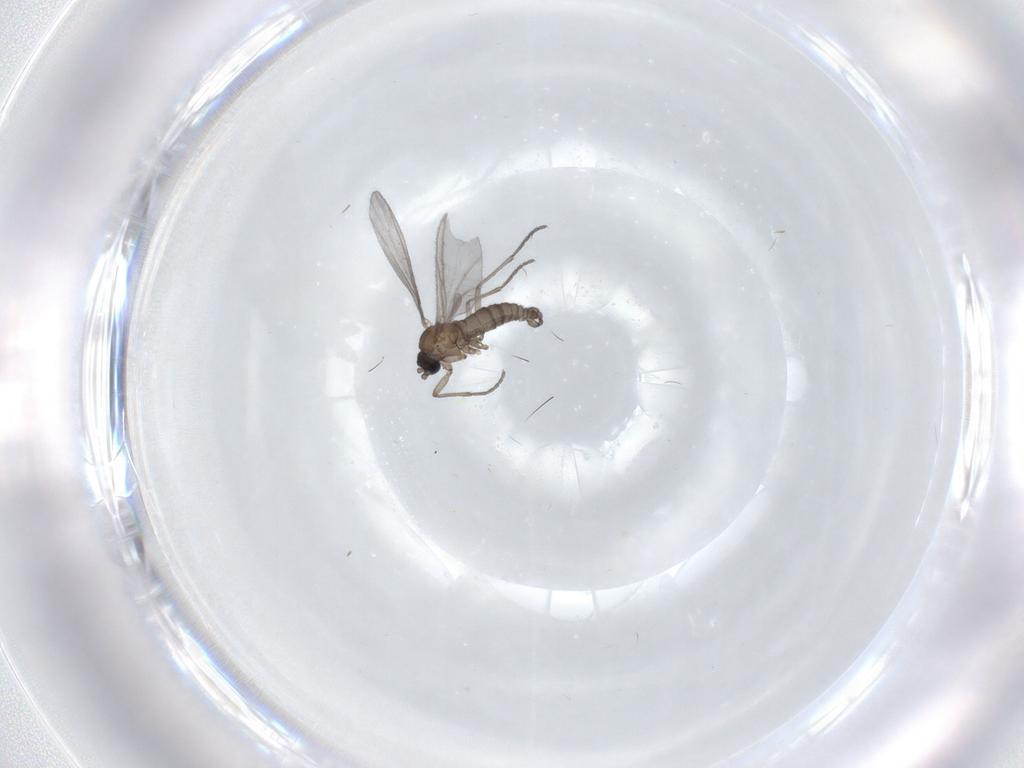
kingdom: Animalia
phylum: Arthropoda
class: Insecta
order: Diptera
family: Sciaridae
